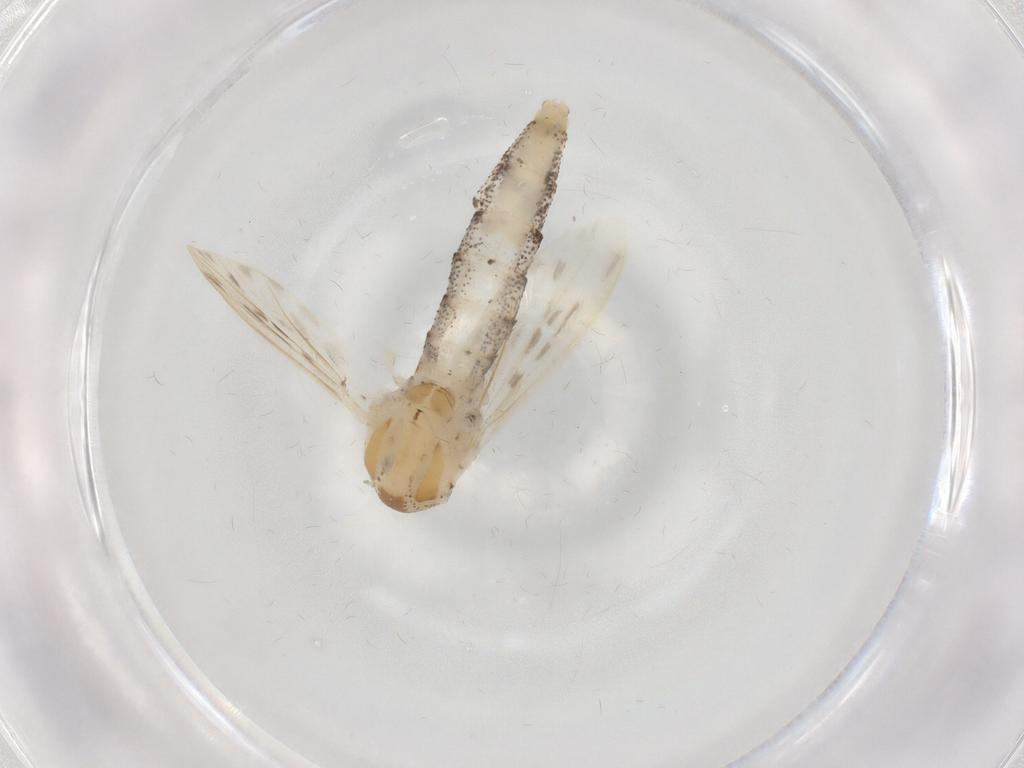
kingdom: Animalia
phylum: Arthropoda
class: Insecta
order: Diptera
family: Chaoboridae
